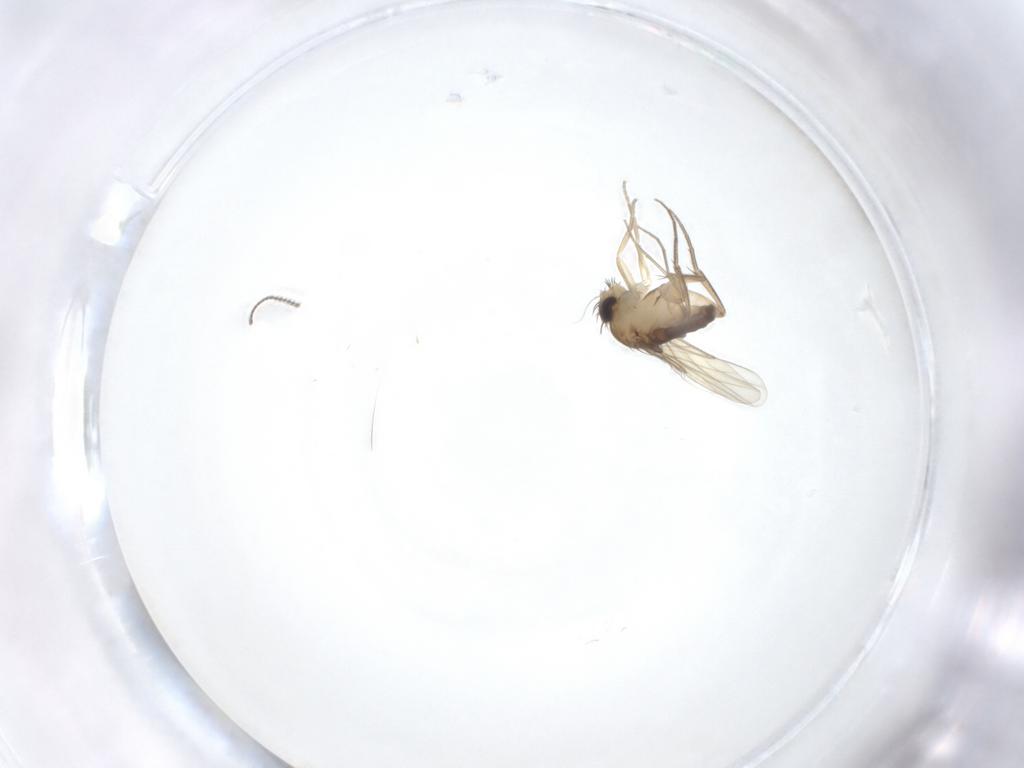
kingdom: Animalia
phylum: Arthropoda
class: Insecta
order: Diptera
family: Phoridae
